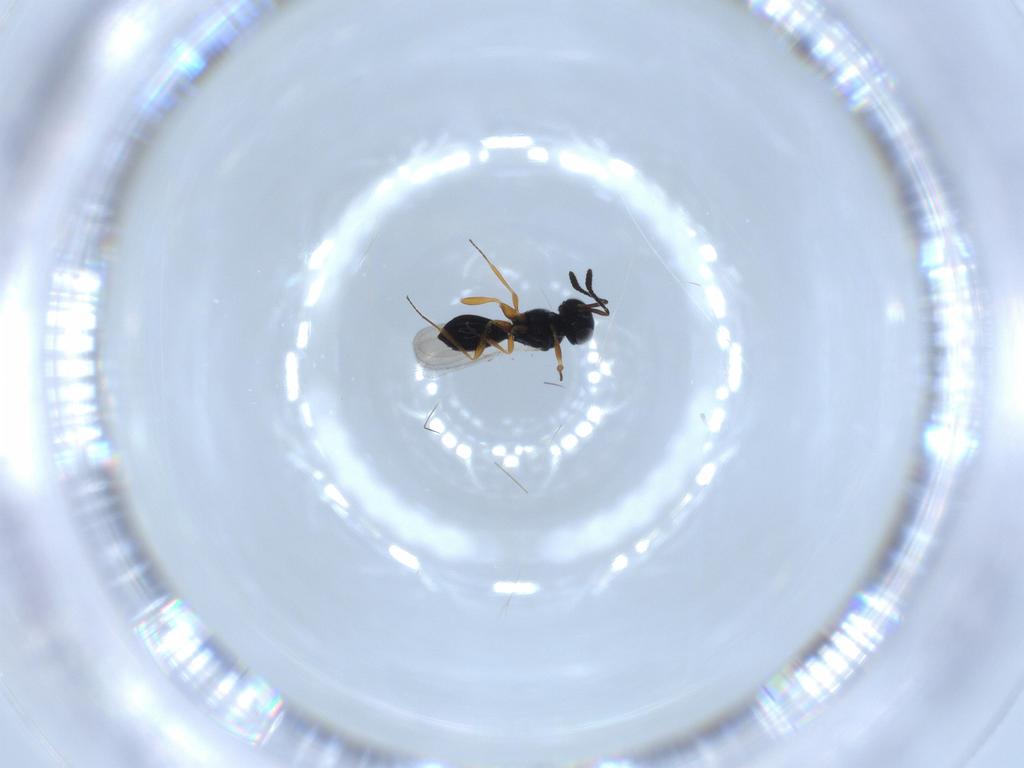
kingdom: Animalia
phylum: Arthropoda
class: Insecta
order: Hymenoptera
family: Scelionidae
